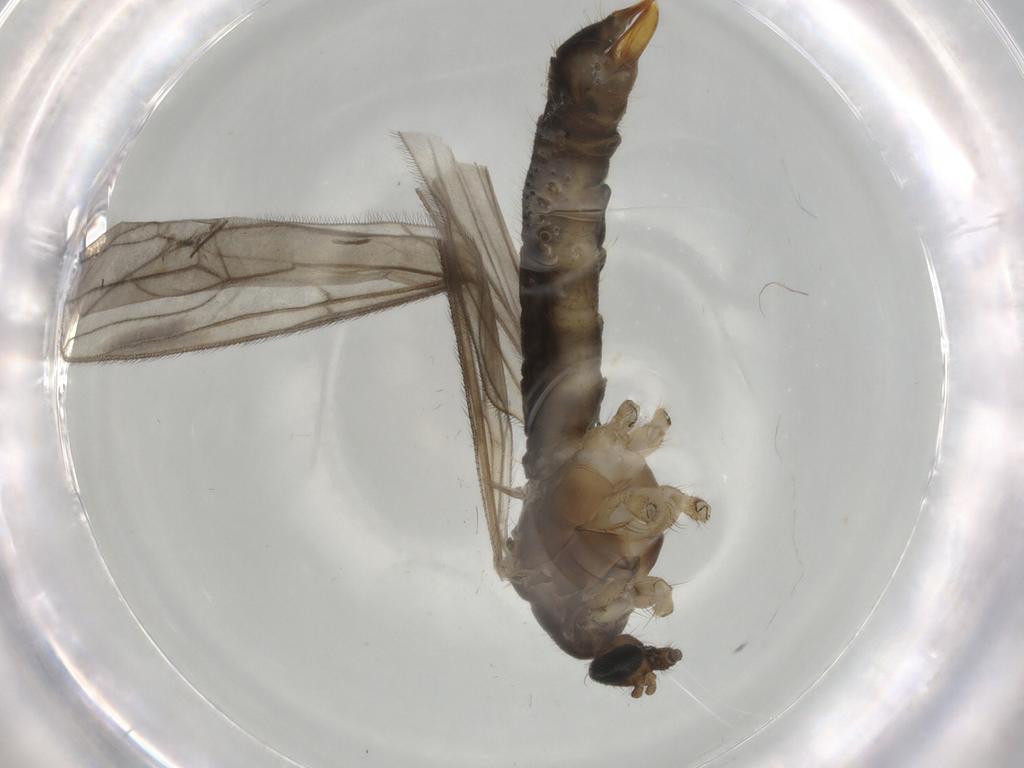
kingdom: Animalia
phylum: Arthropoda
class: Insecta
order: Diptera
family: Limoniidae
